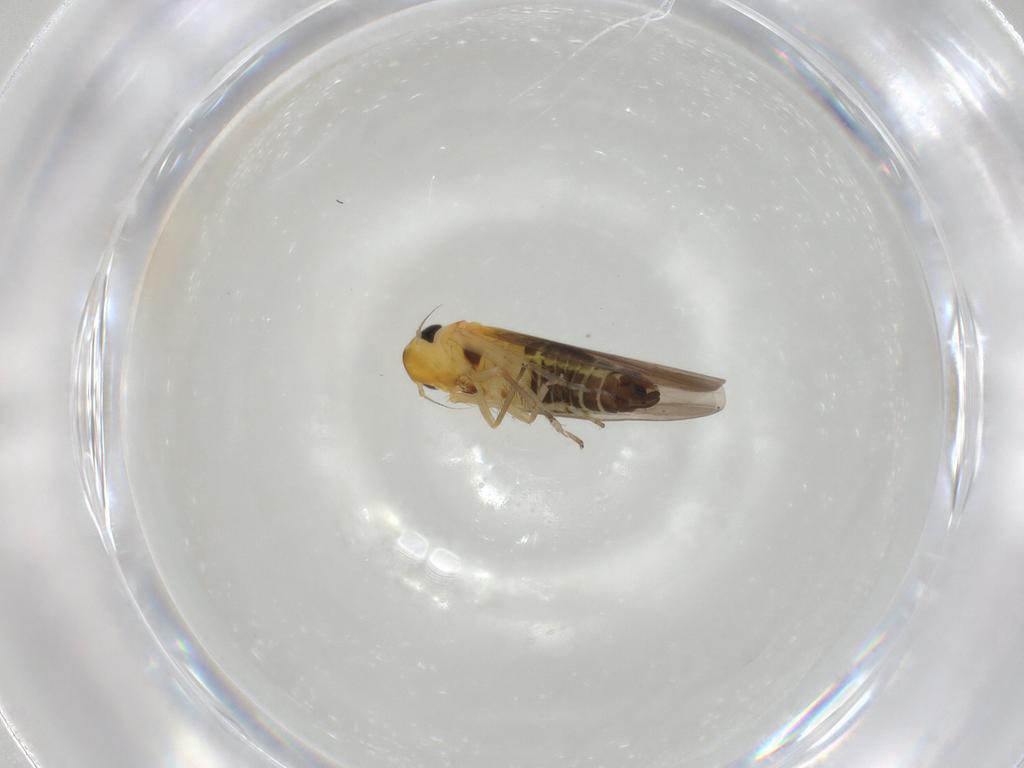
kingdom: Animalia
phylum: Arthropoda
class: Insecta
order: Hemiptera
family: Cicadellidae
